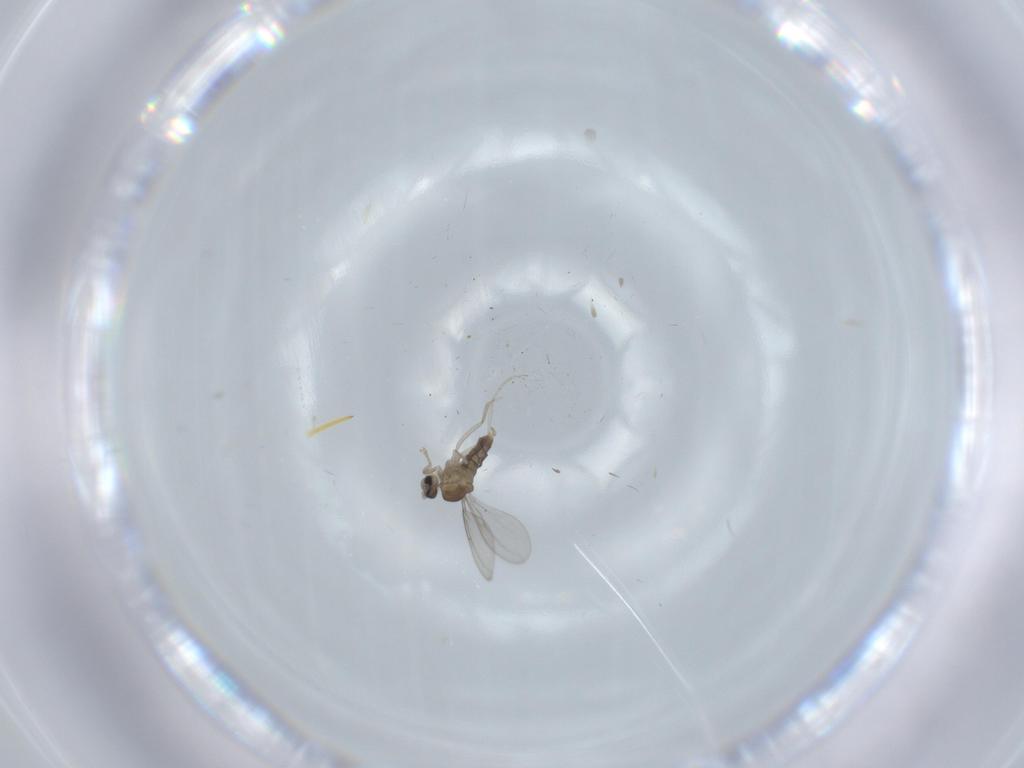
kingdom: Animalia
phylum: Arthropoda
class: Insecta
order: Diptera
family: Sphaeroceridae
